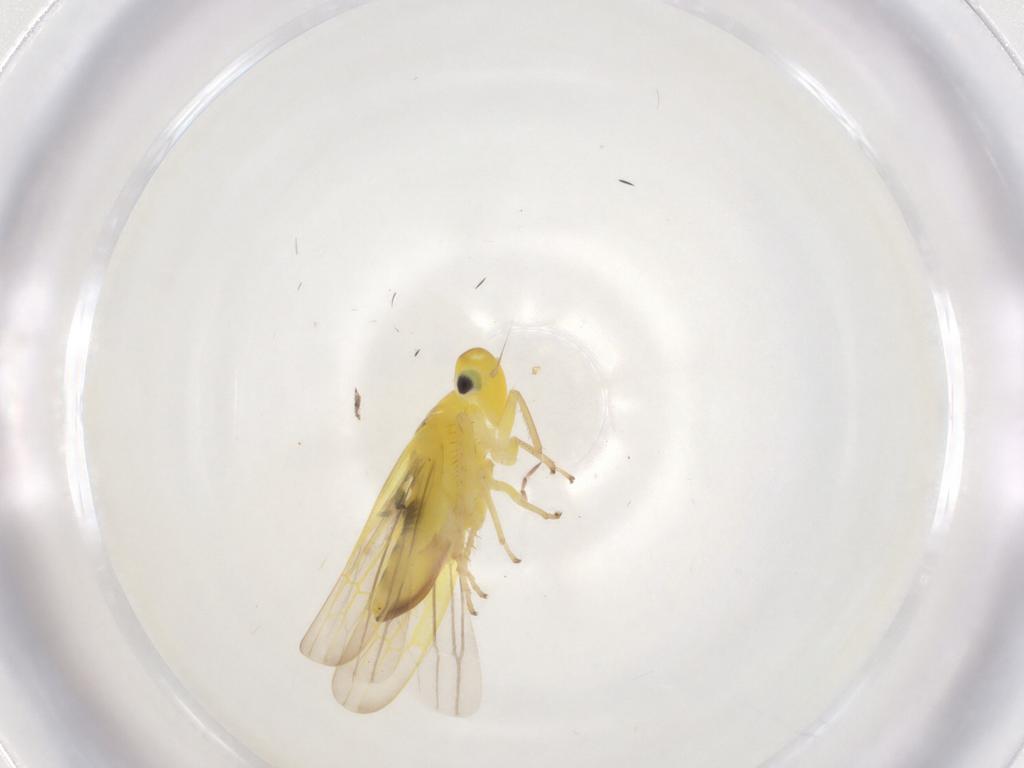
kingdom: Animalia
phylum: Arthropoda
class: Insecta
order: Hemiptera
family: Cicadellidae
